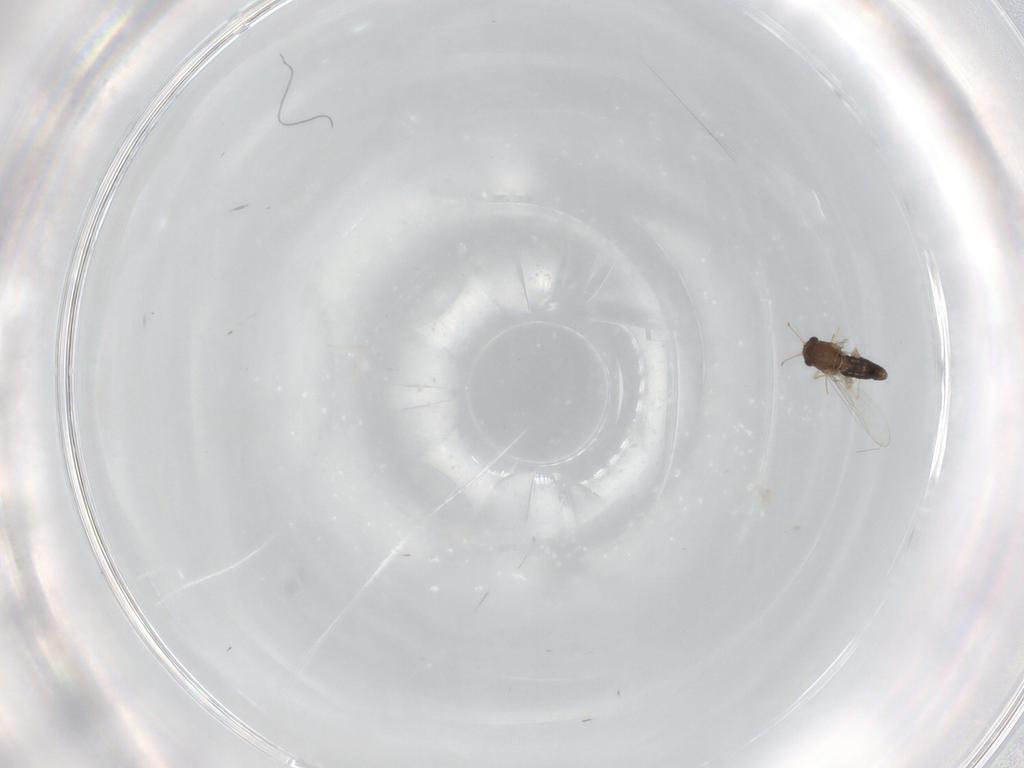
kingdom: Animalia
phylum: Arthropoda
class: Insecta
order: Diptera
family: Chironomidae
